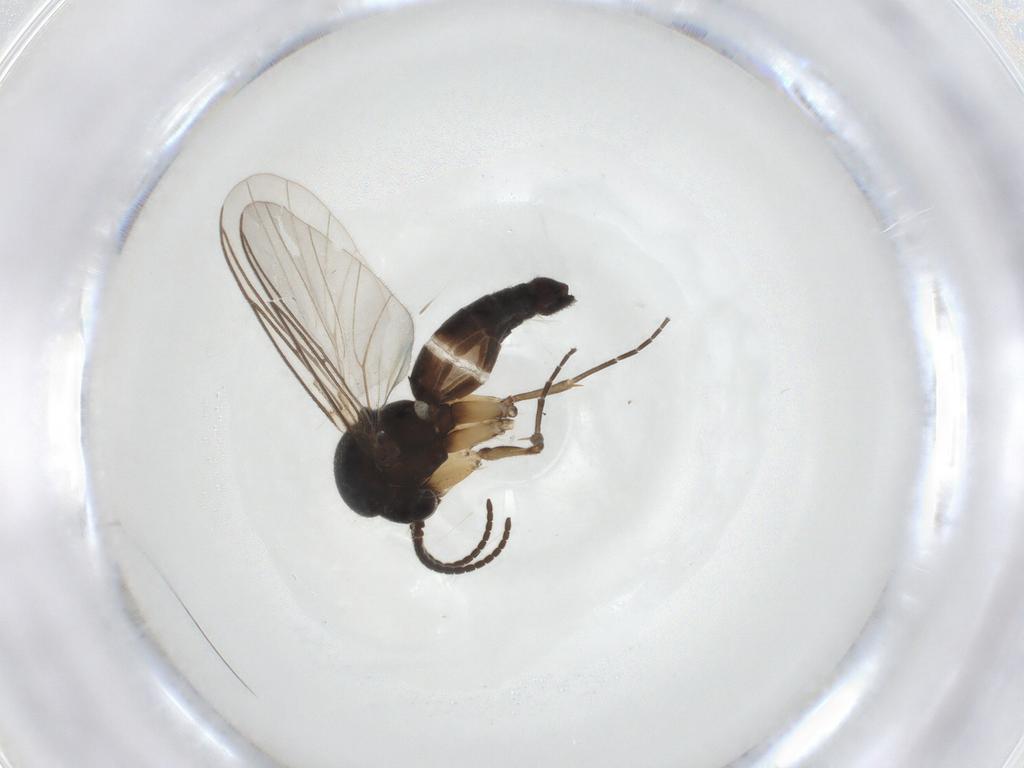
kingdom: Animalia
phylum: Arthropoda
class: Insecta
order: Diptera
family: Mycetophilidae
